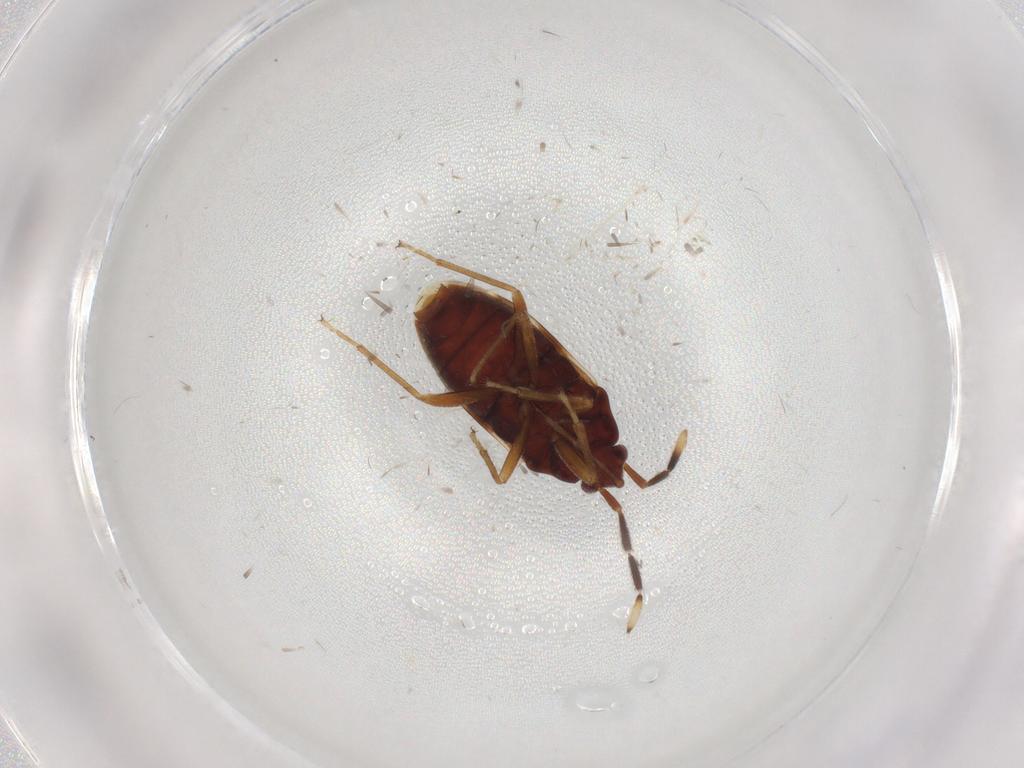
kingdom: Animalia
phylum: Arthropoda
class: Insecta
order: Hemiptera
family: Rhyparochromidae
